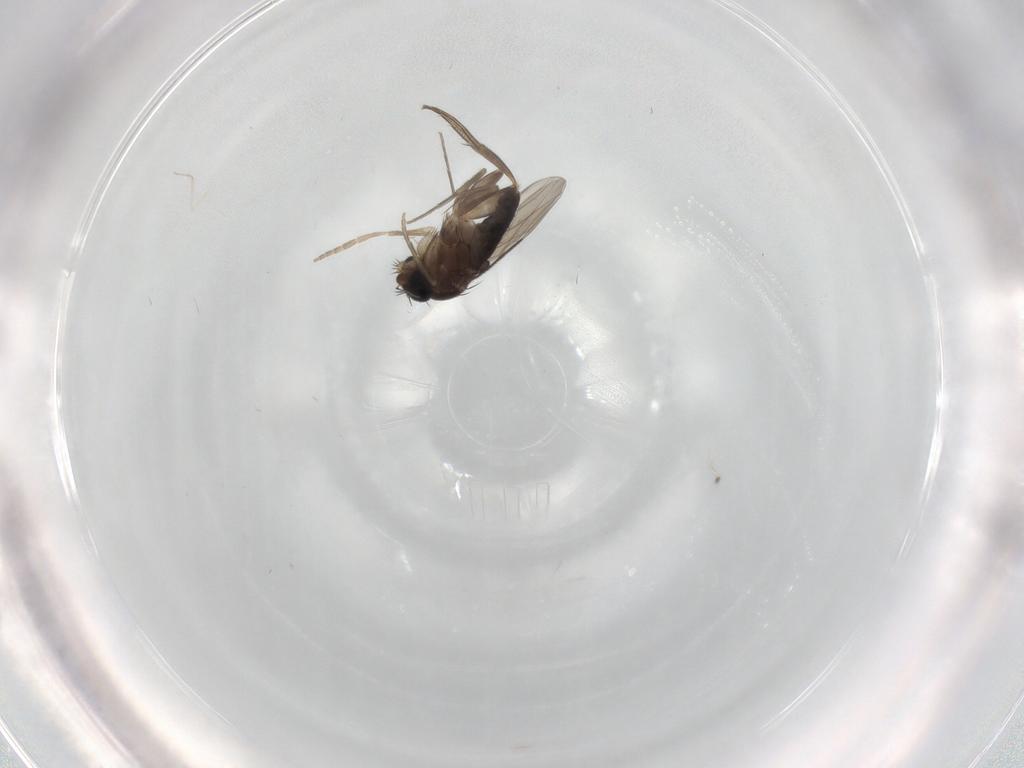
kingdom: Animalia
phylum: Arthropoda
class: Insecta
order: Diptera
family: Phoridae
